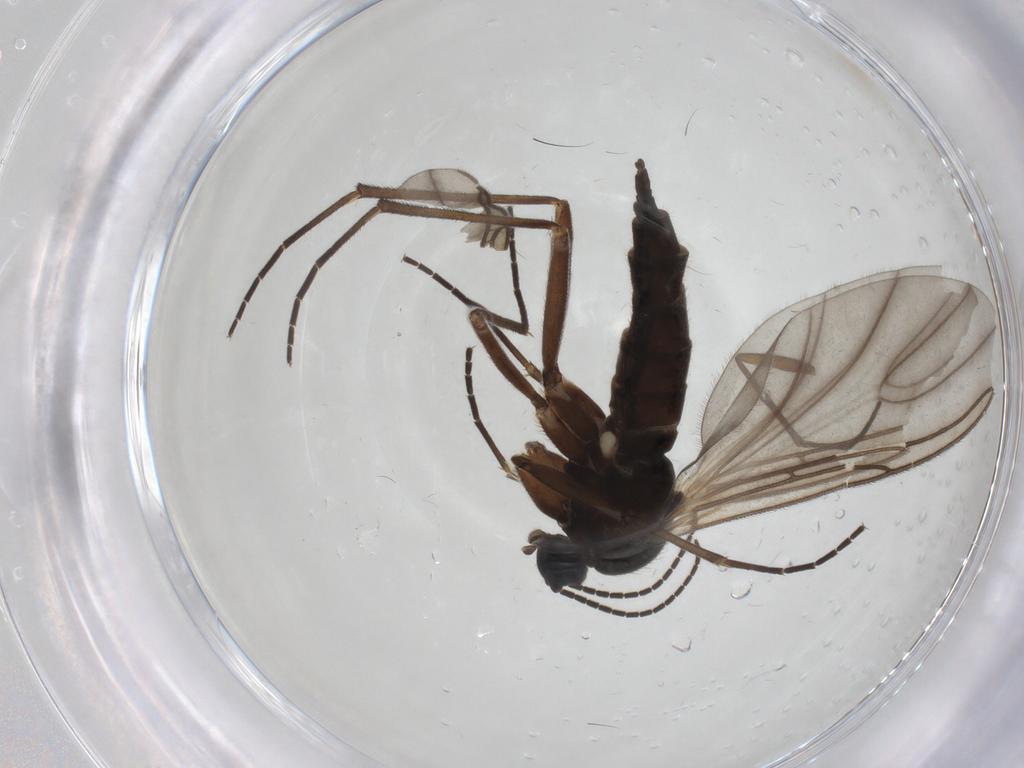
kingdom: Animalia
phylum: Arthropoda
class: Insecta
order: Diptera
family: Sciaridae
